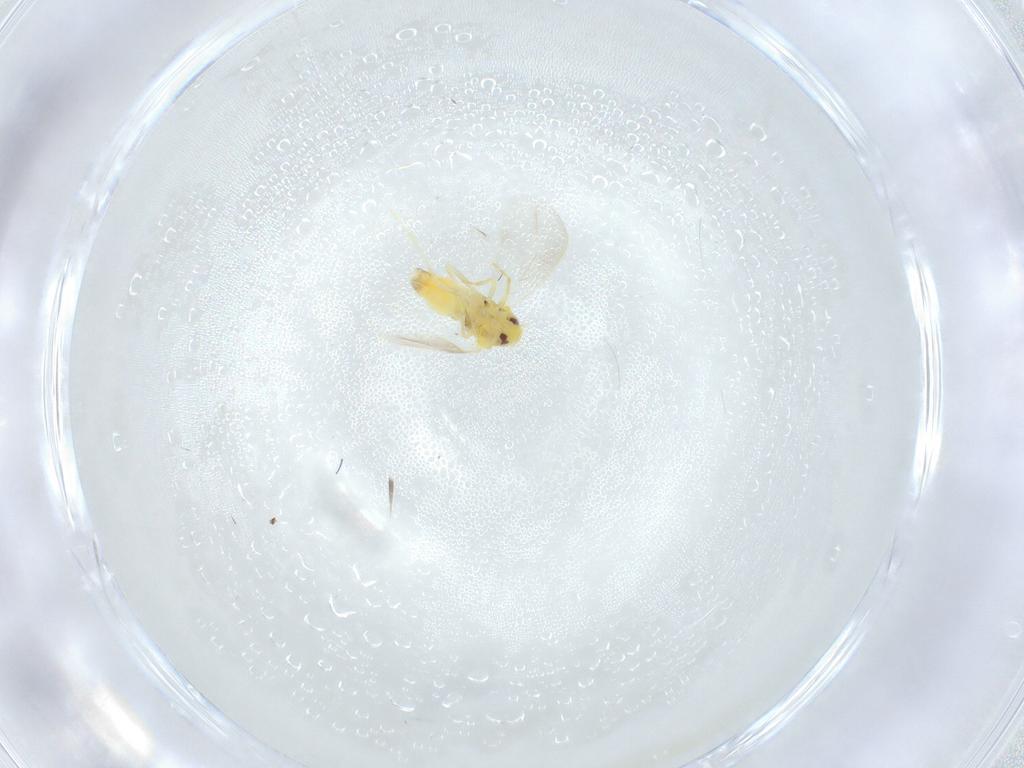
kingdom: Animalia
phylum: Arthropoda
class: Insecta
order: Hemiptera
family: Aleyrodidae
